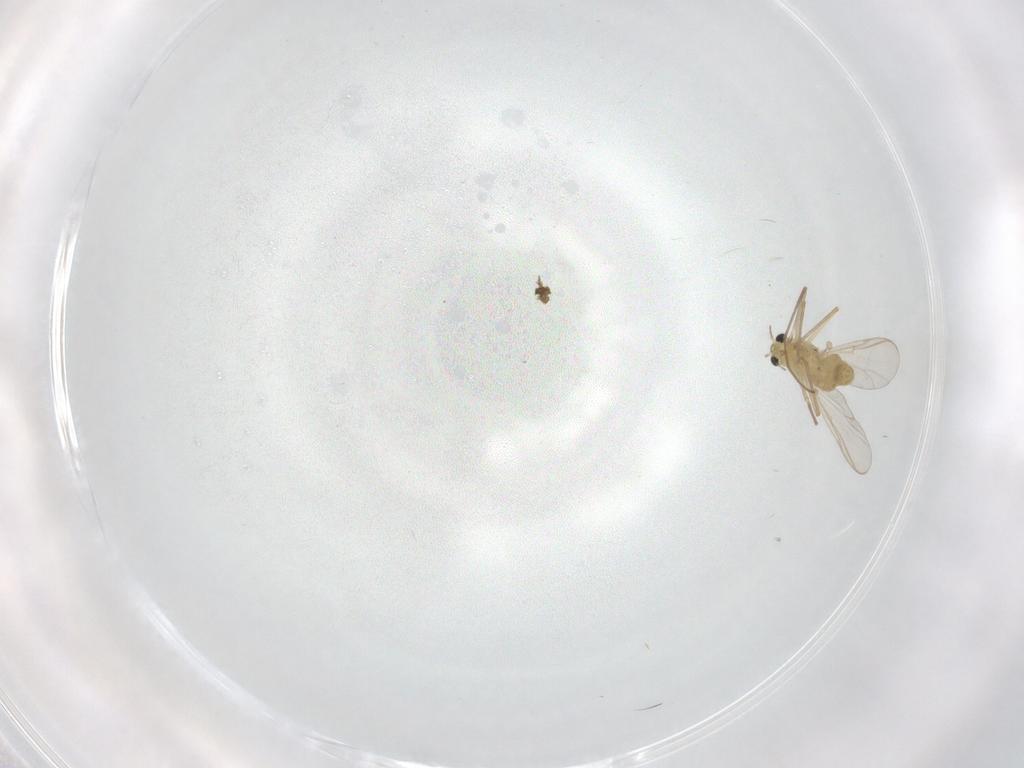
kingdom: Animalia
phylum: Arthropoda
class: Insecta
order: Diptera
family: Chironomidae
